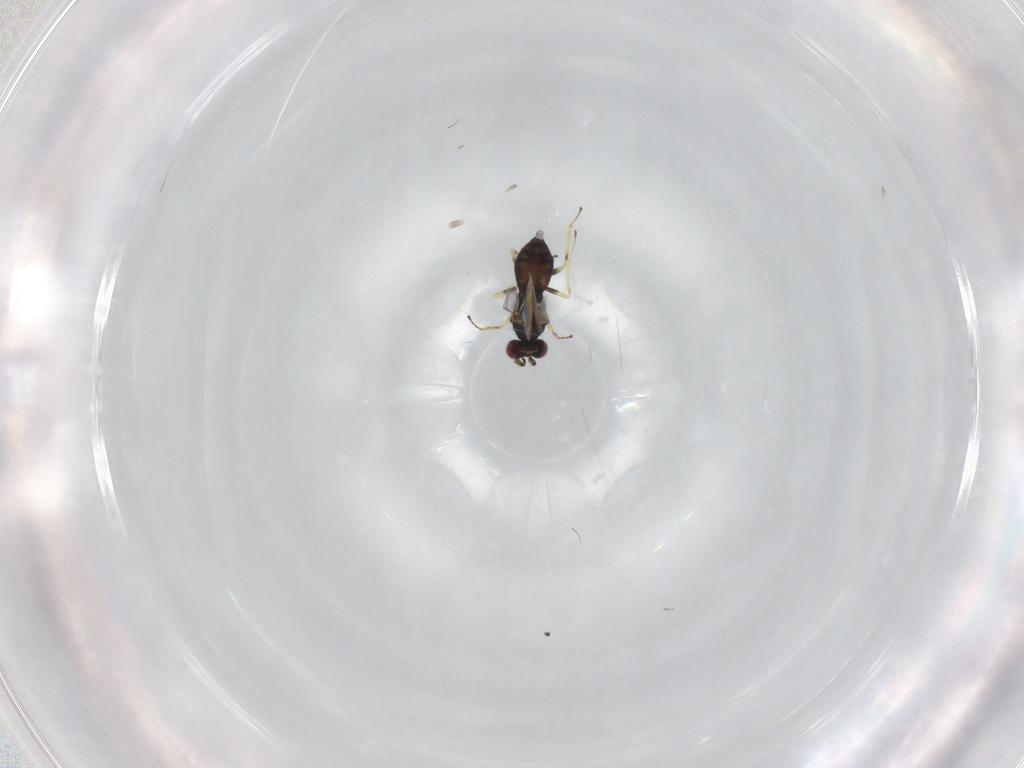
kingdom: Animalia
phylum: Arthropoda
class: Insecta
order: Hymenoptera
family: Eulophidae
